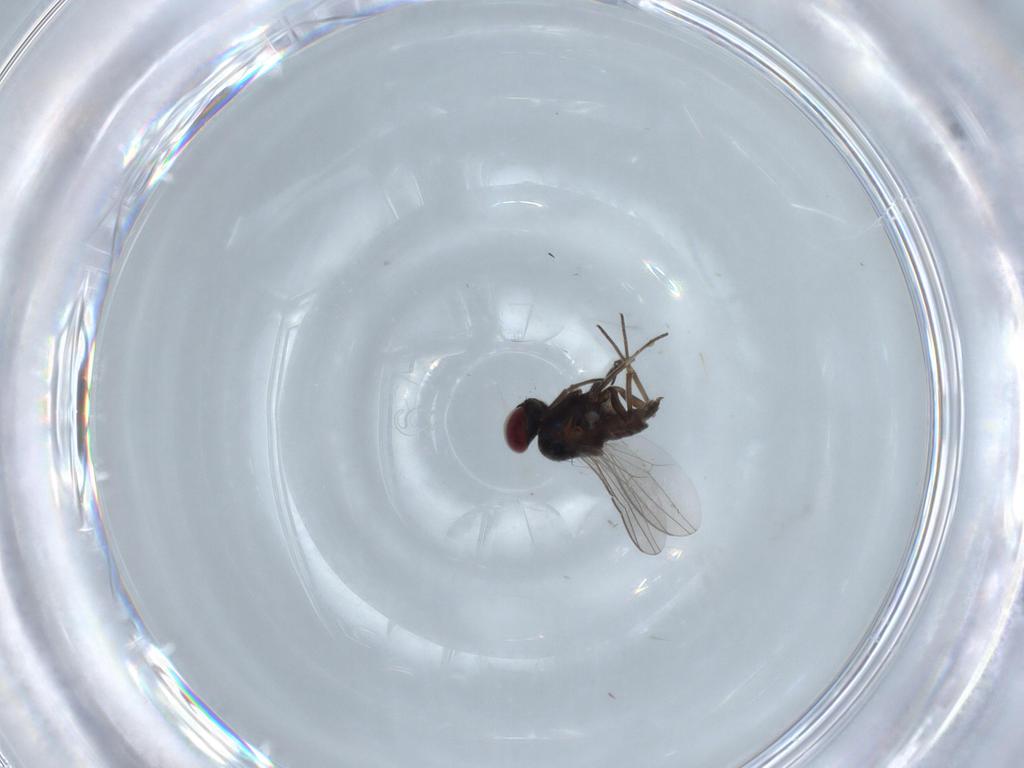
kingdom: Animalia
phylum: Arthropoda
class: Insecta
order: Diptera
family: Dolichopodidae
